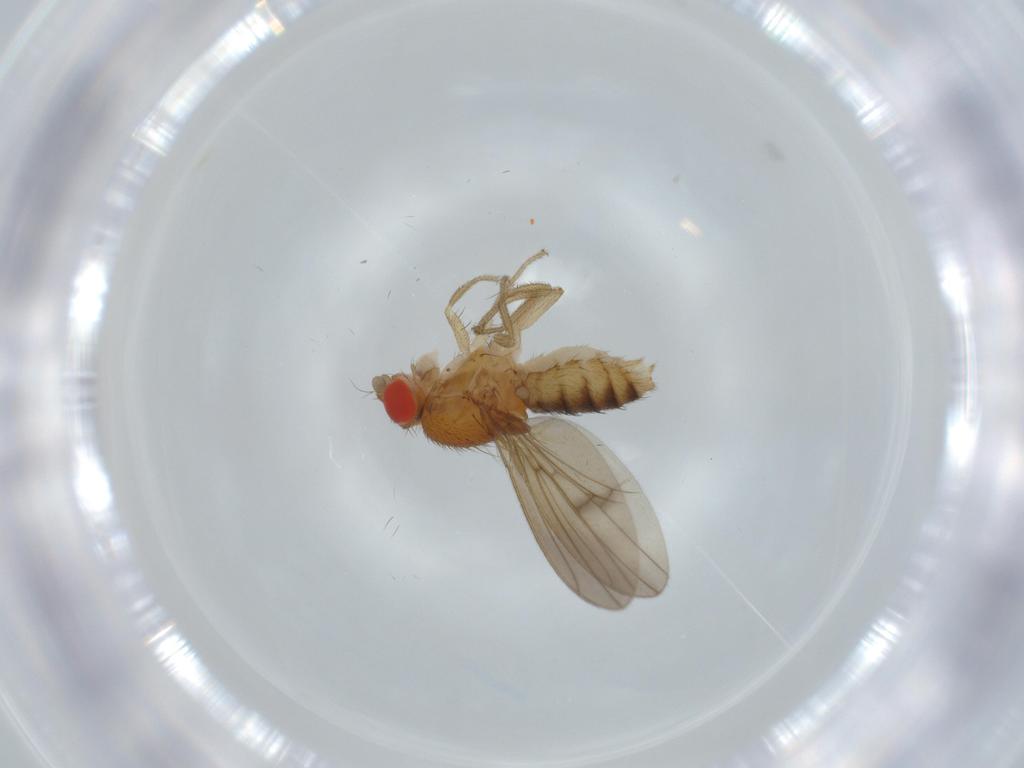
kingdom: Animalia
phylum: Arthropoda
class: Insecta
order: Diptera
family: Drosophilidae
